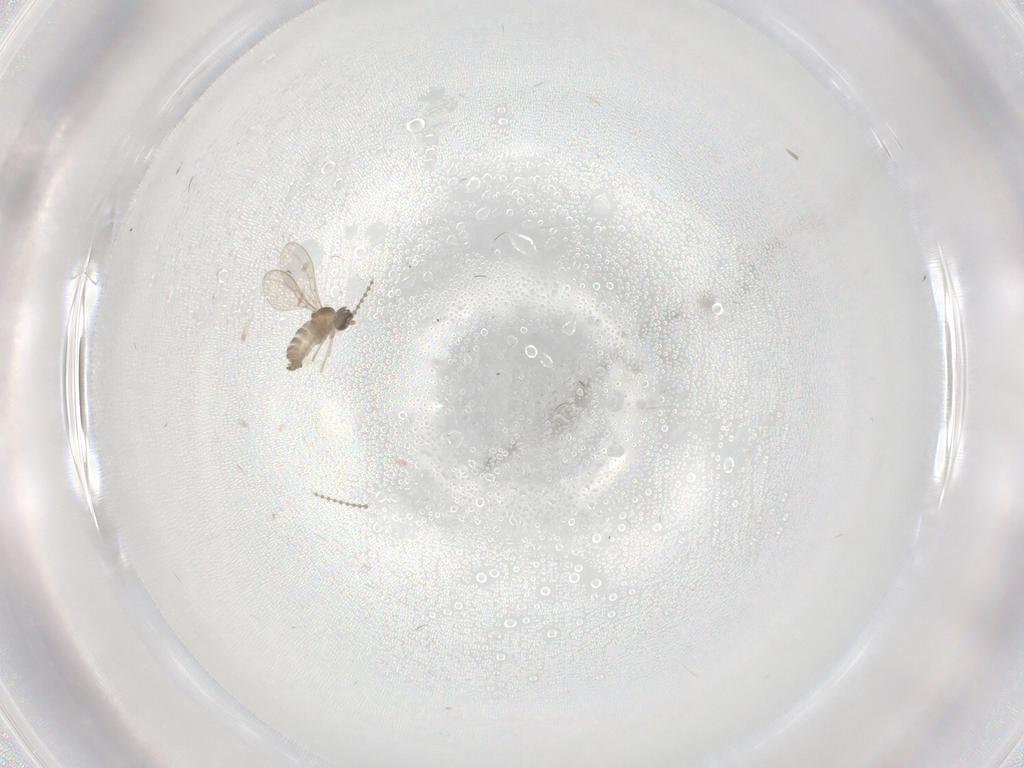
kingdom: Animalia
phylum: Arthropoda
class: Insecta
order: Diptera
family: Cecidomyiidae
